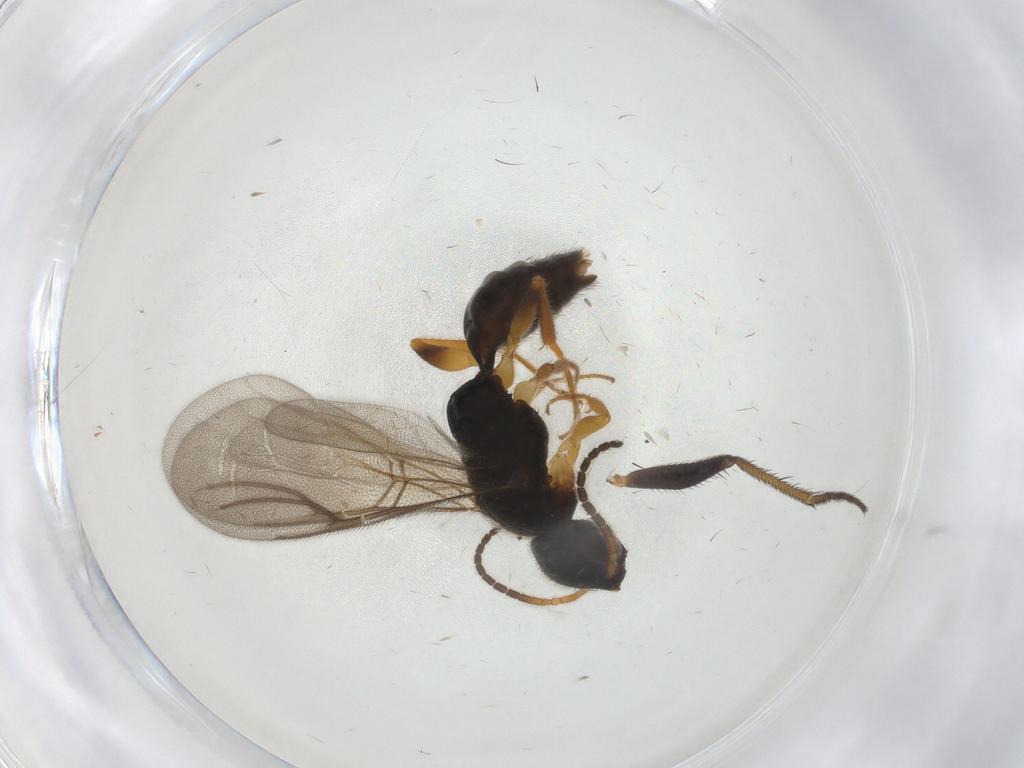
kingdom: Animalia
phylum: Arthropoda
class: Insecta
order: Hymenoptera
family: Bethylidae
